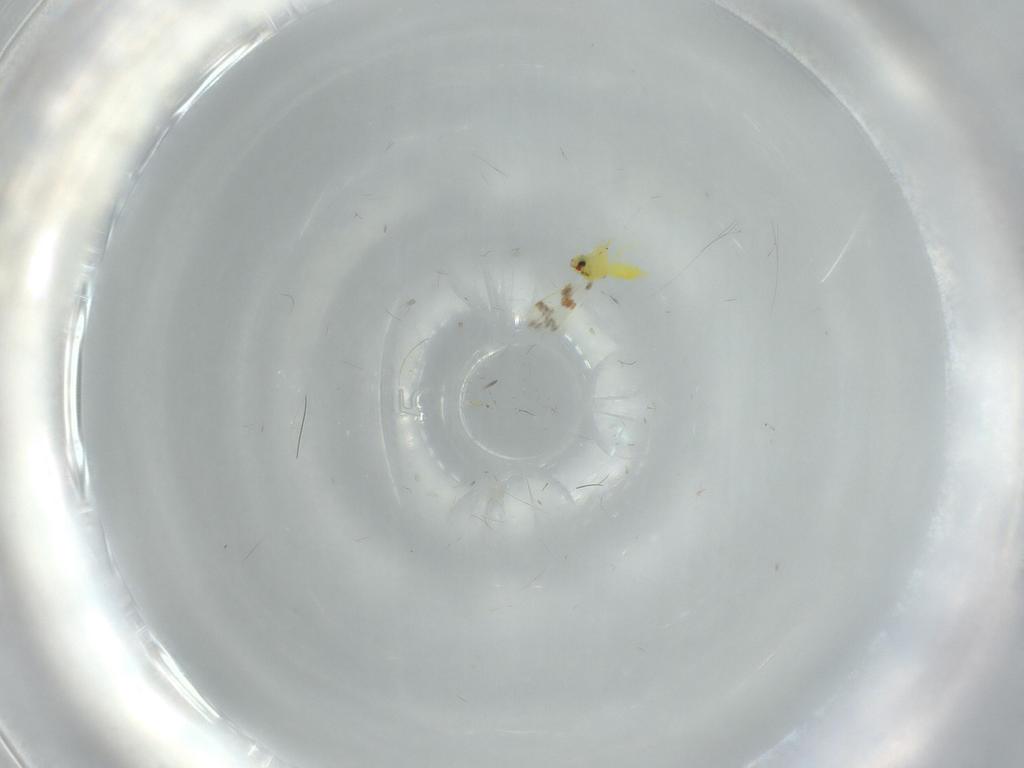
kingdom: Animalia
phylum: Arthropoda
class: Insecta
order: Hemiptera
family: Aleyrodidae
